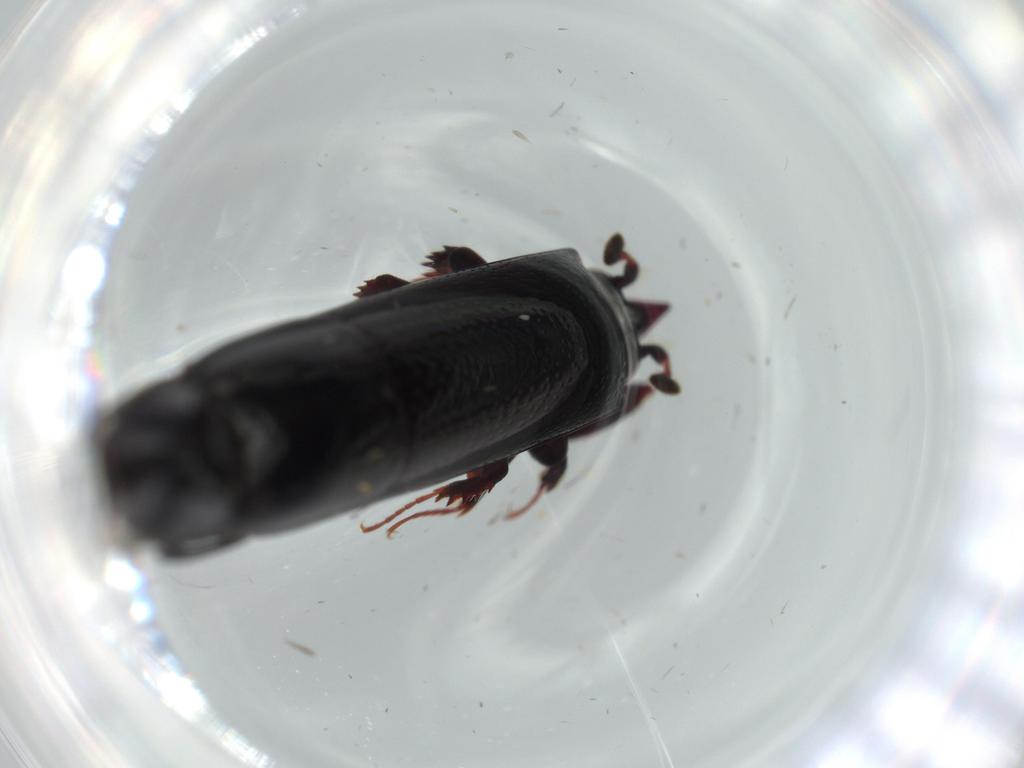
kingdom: Animalia
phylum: Arthropoda
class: Insecta
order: Coleoptera
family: Histeridae
